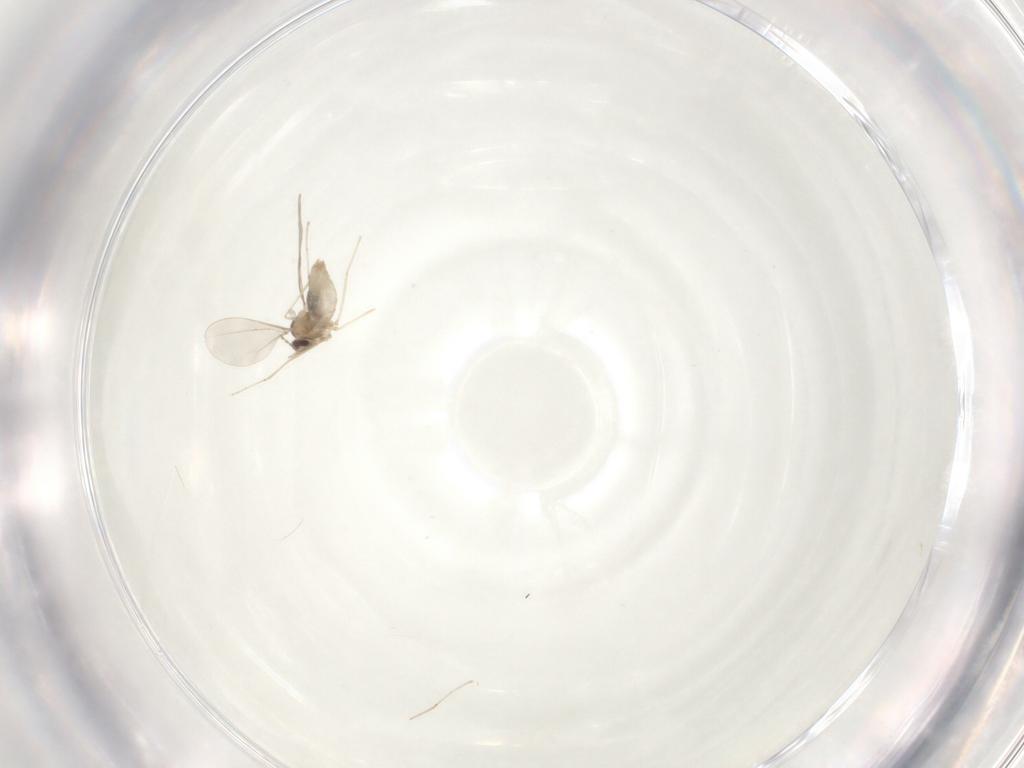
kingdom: Animalia
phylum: Arthropoda
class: Insecta
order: Diptera
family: Cecidomyiidae
